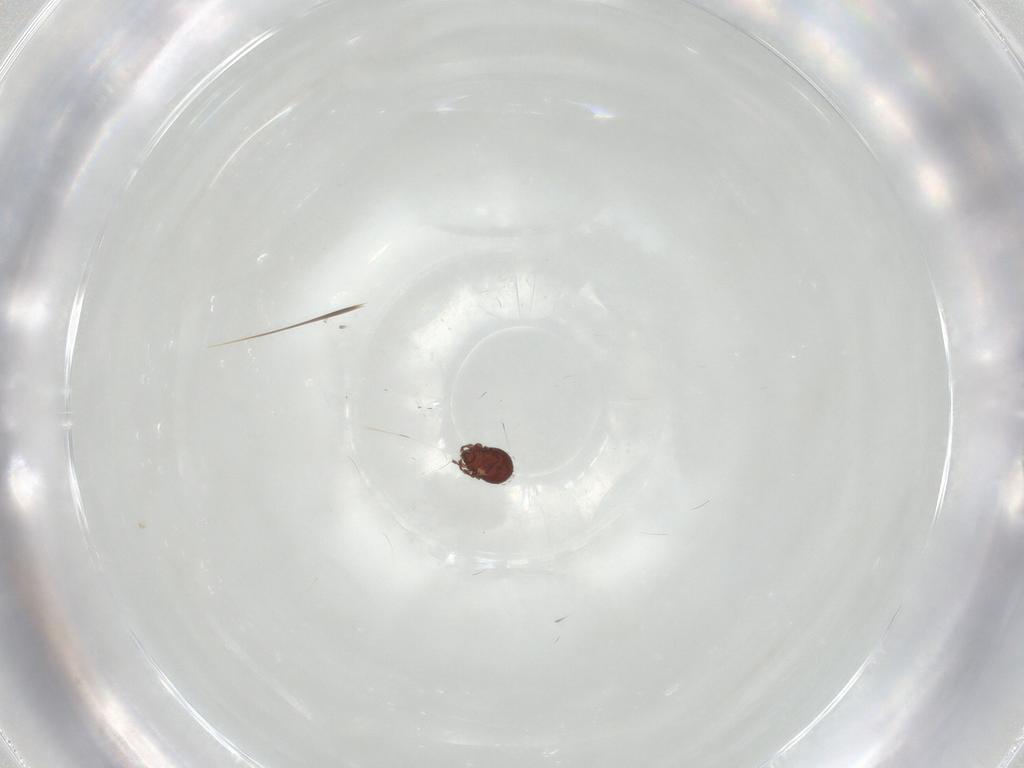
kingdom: Animalia
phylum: Arthropoda
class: Arachnida
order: Sarcoptiformes
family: Scheloribatidae
